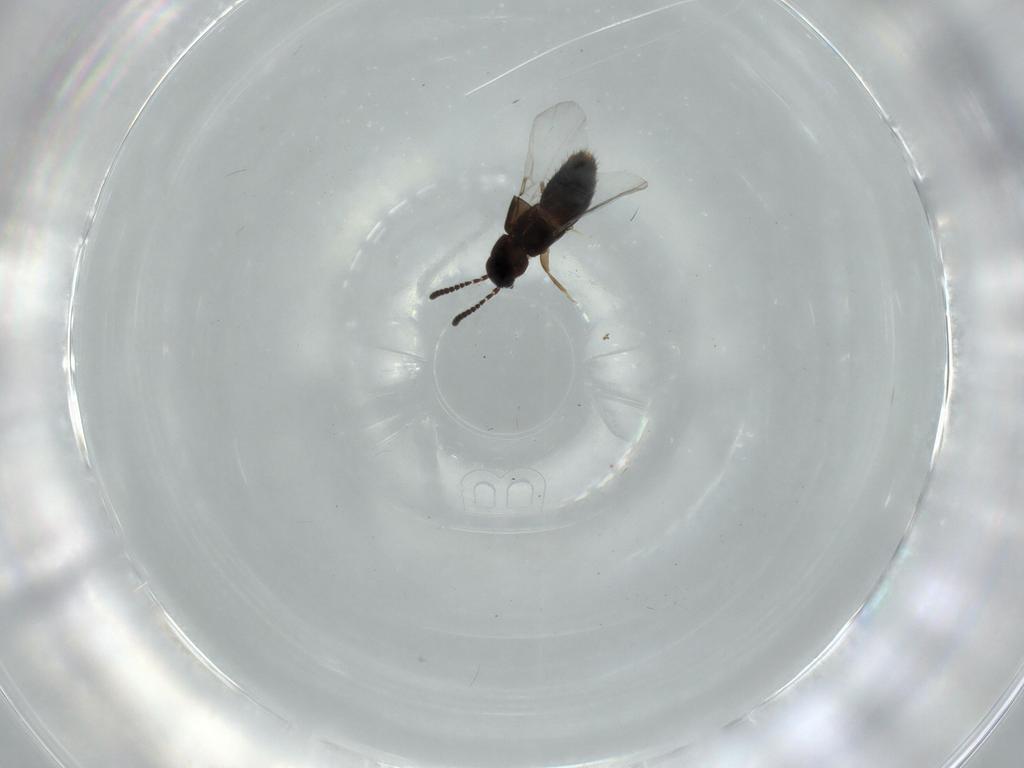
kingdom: Animalia
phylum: Arthropoda
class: Insecta
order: Coleoptera
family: Staphylinidae
